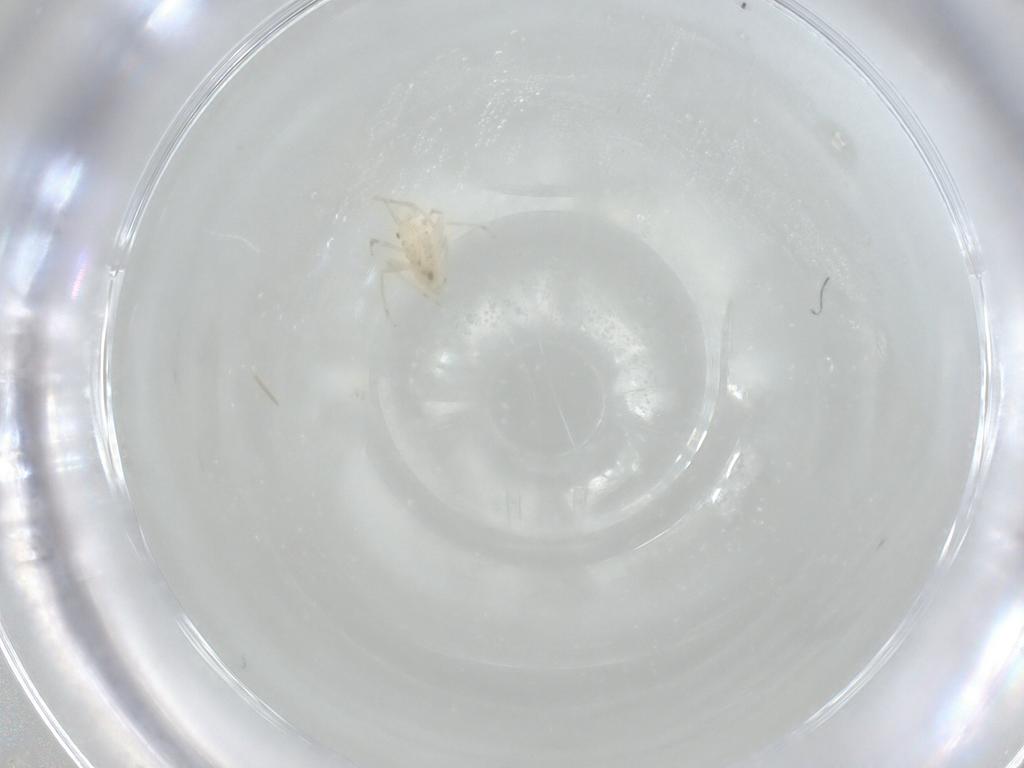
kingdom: Animalia
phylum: Arthropoda
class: Insecta
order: Hemiptera
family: Miridae
